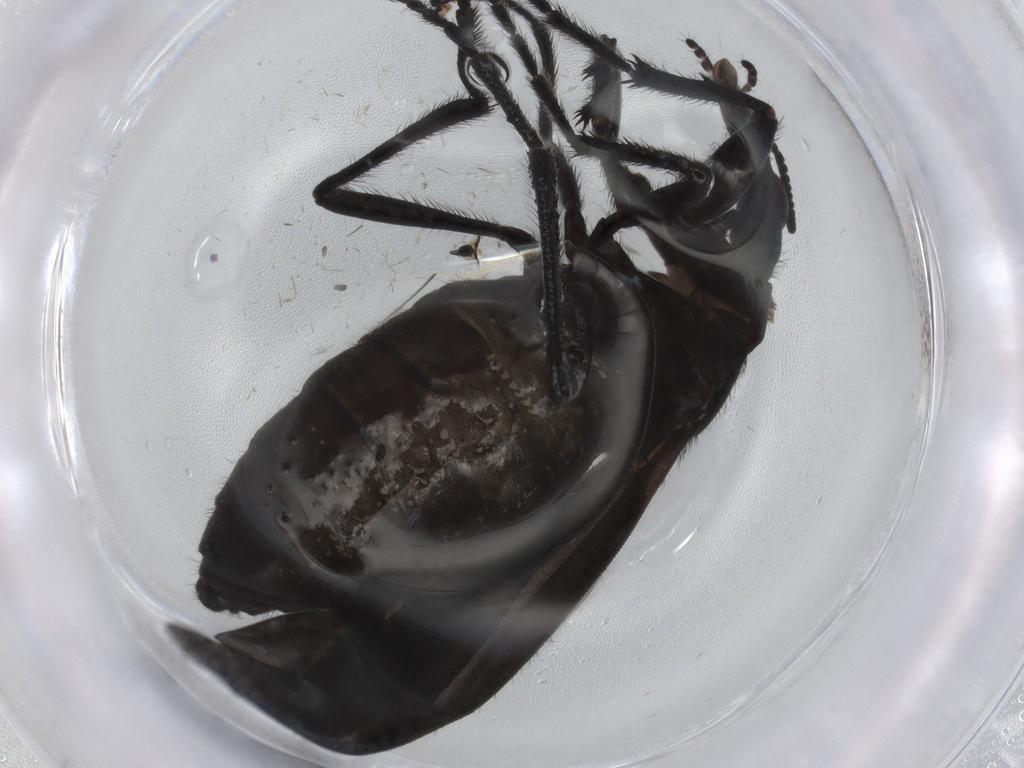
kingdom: Animalia
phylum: Arthropoda
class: Insecta
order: Diptera
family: Bibionidae
